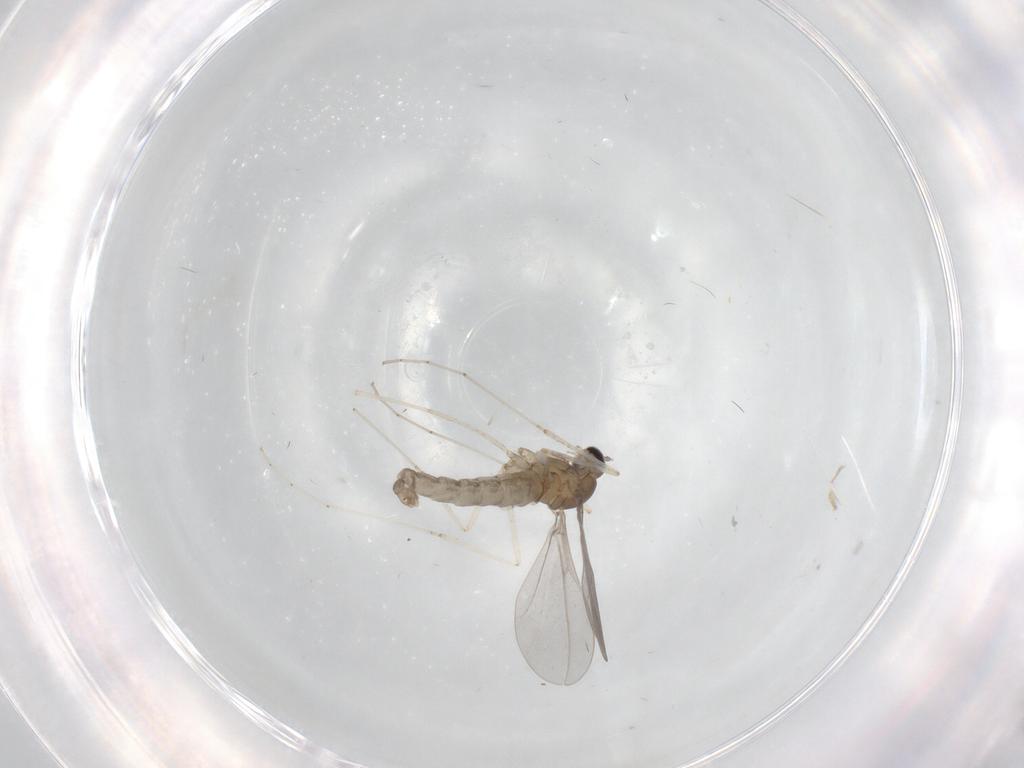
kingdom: Animalia
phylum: Arthropoda
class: Insecta
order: Diptera
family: Cecidomyiidae
